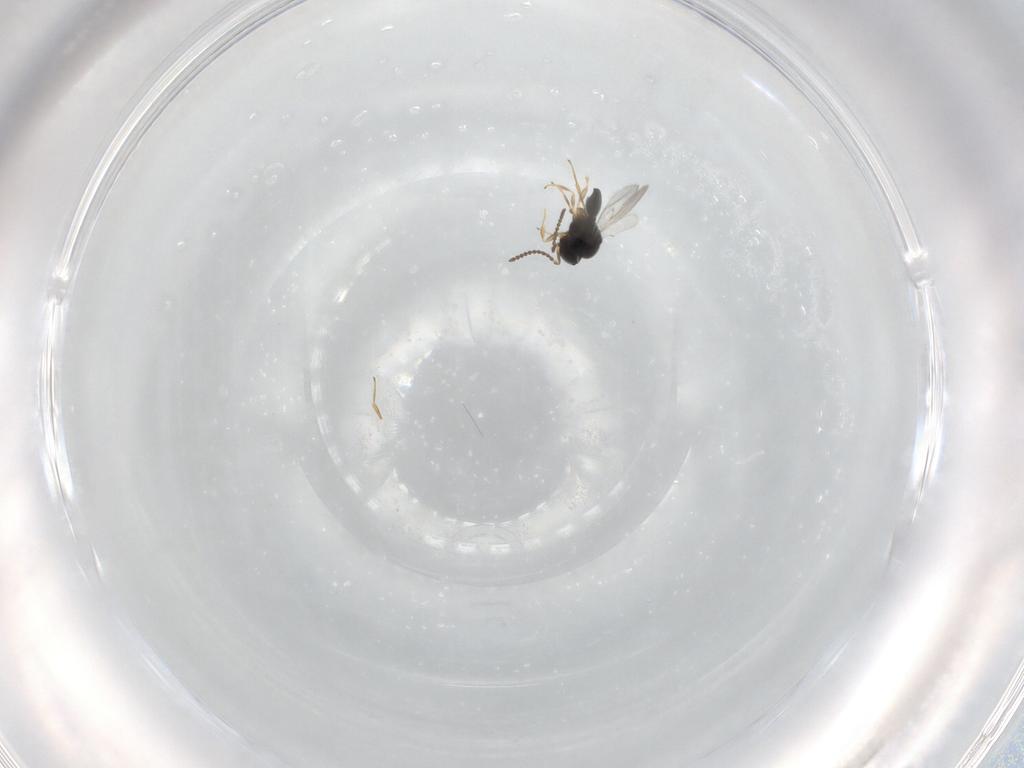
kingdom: Animalia
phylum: Arthropoda
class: Insecta
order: Hymenoptera
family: Scelionidae
